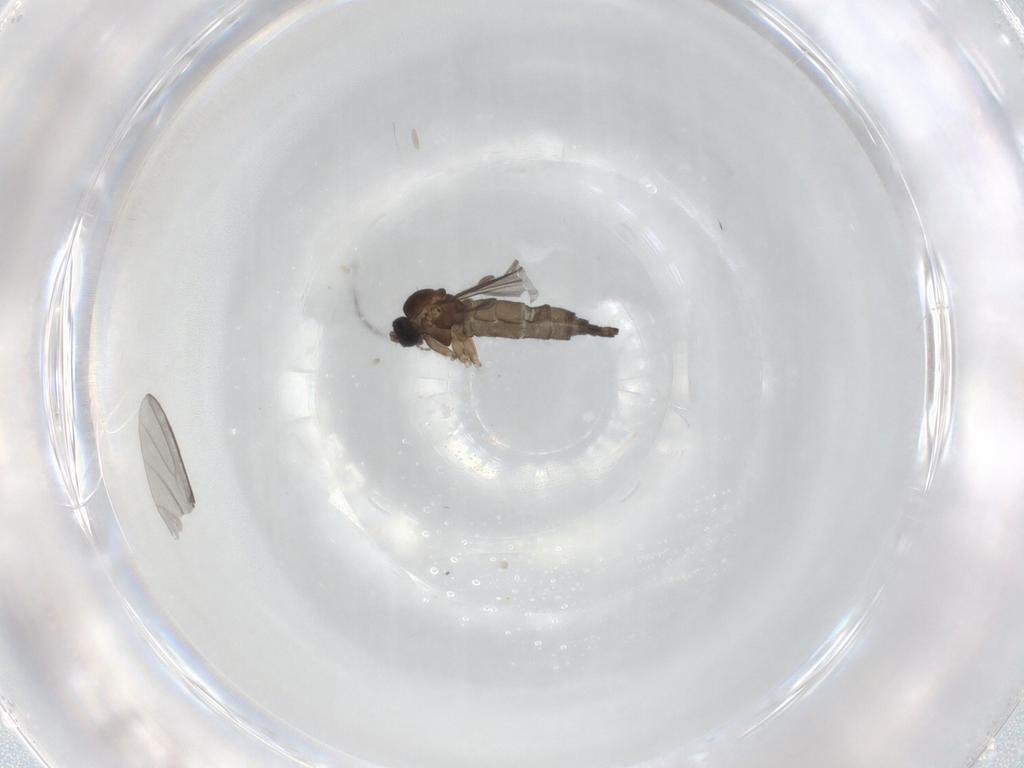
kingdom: Animalia
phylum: Arthropoda
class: Insecta
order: Diptera
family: Sciaridae
